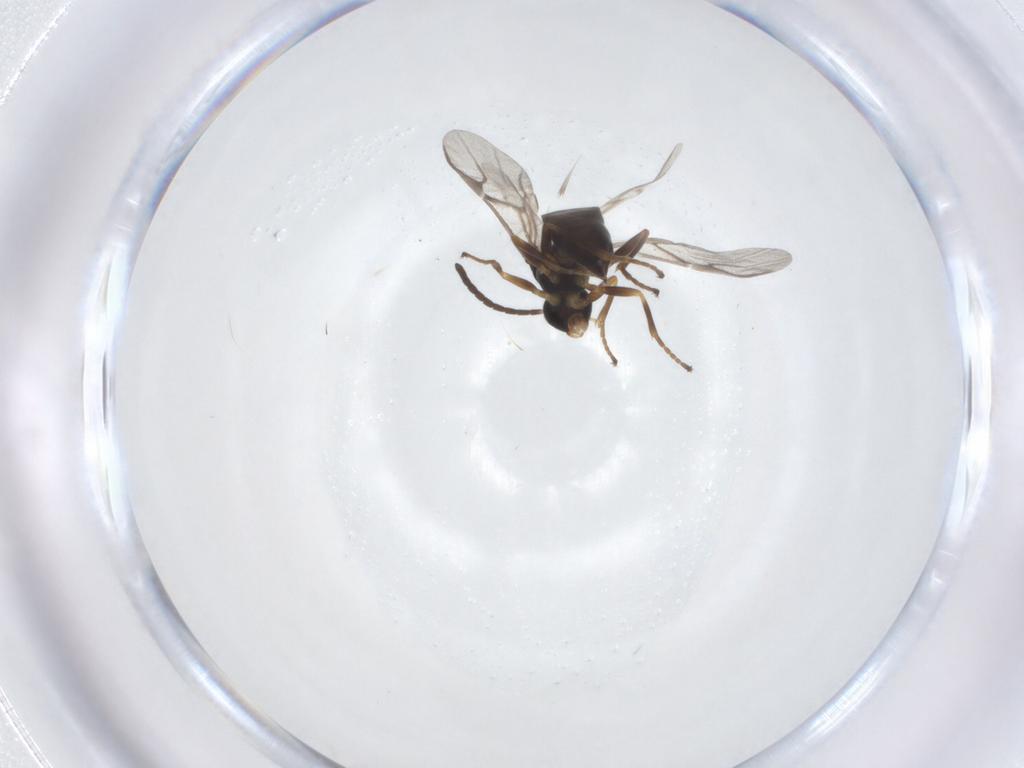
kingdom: Animalia
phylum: Arthropoda
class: Insecta
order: Hymenoptera
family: Braconidae
